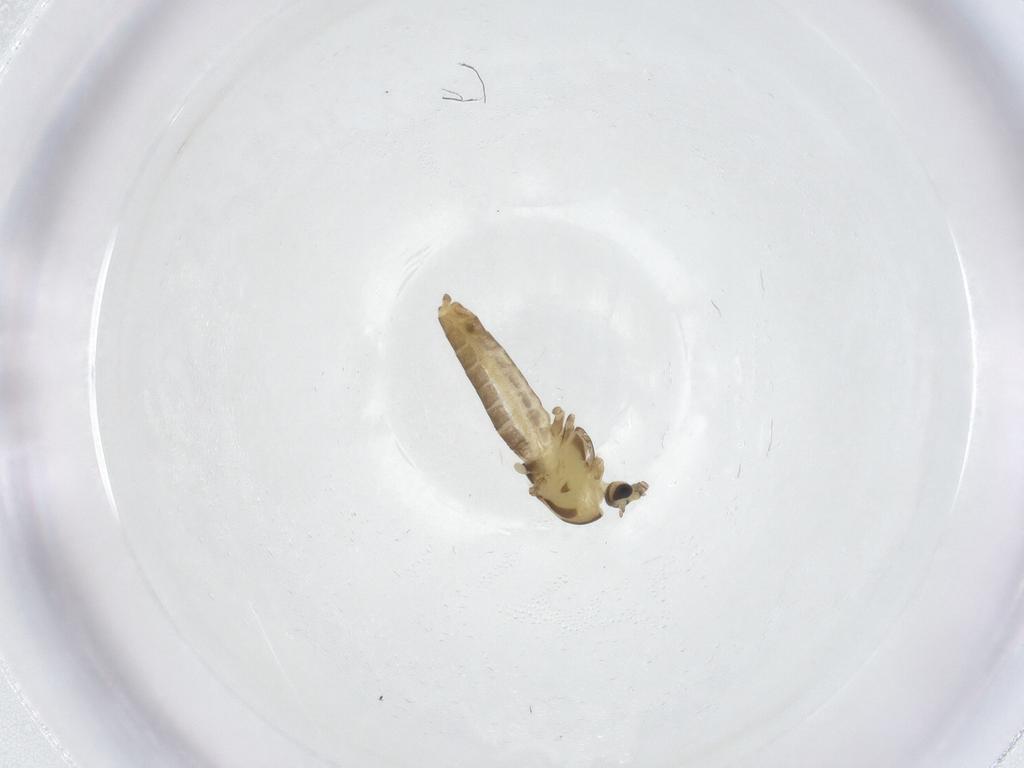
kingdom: Animalia
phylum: Arthropoda
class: Insecta
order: Diptera
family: Chironomidae
